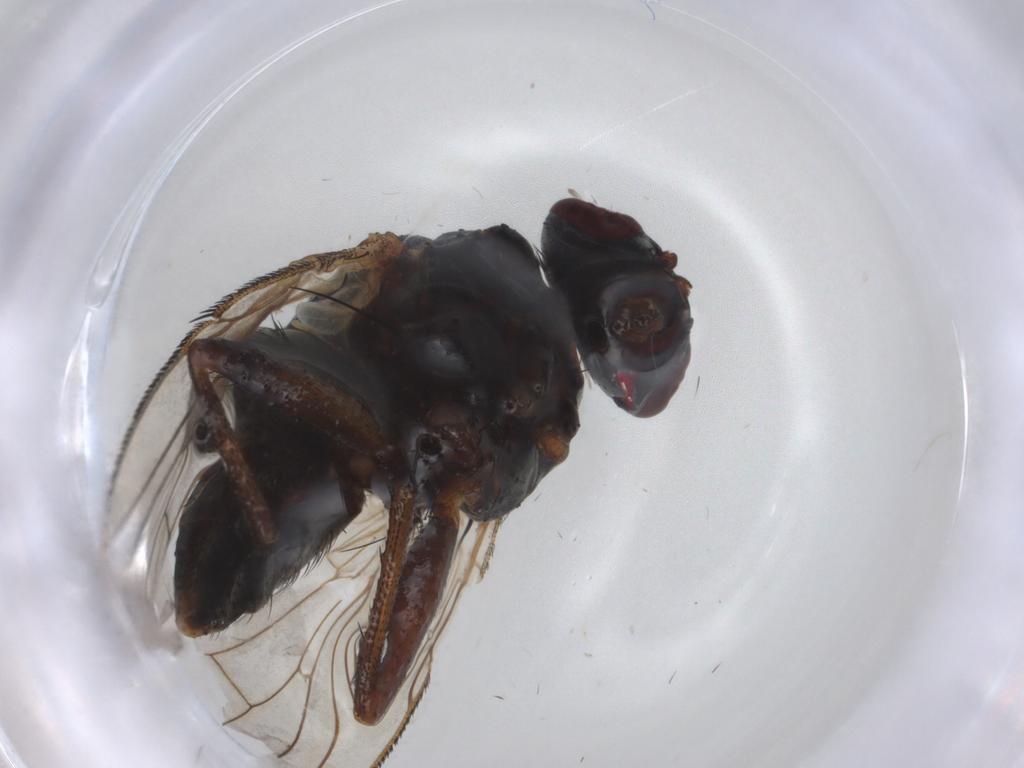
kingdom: Animalia
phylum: Arthropoda
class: Insecta
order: Diptera
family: Muscidae
